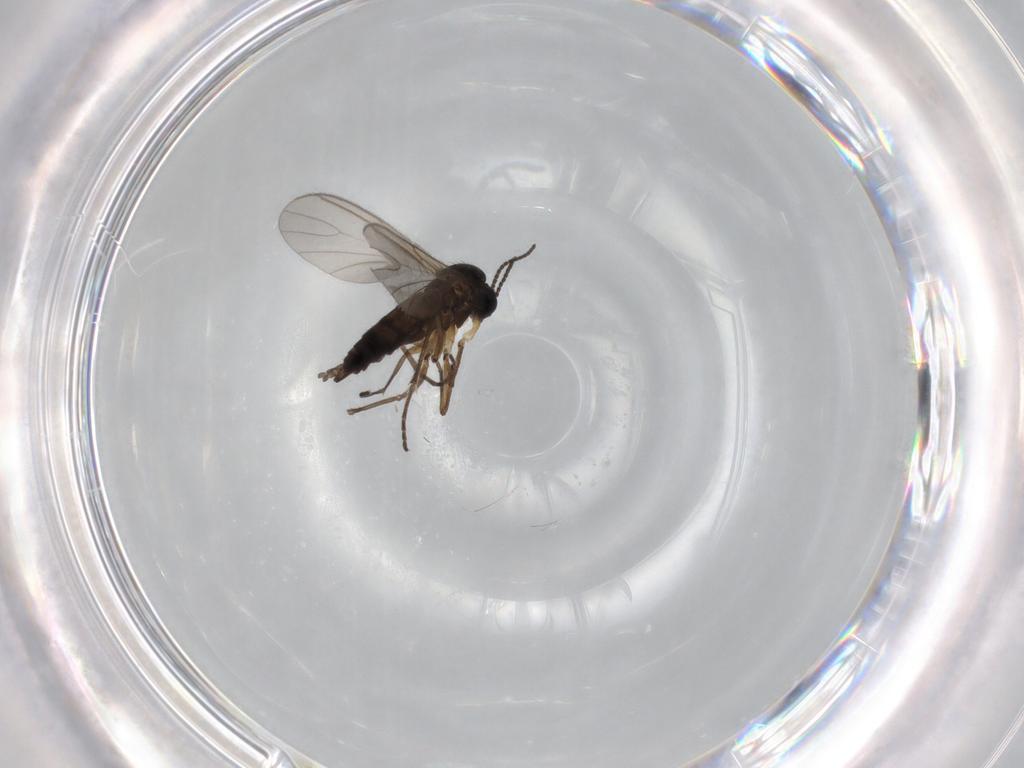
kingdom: Animalia
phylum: Arthropoda
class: Insecta
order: Diptera
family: Sciaridae
